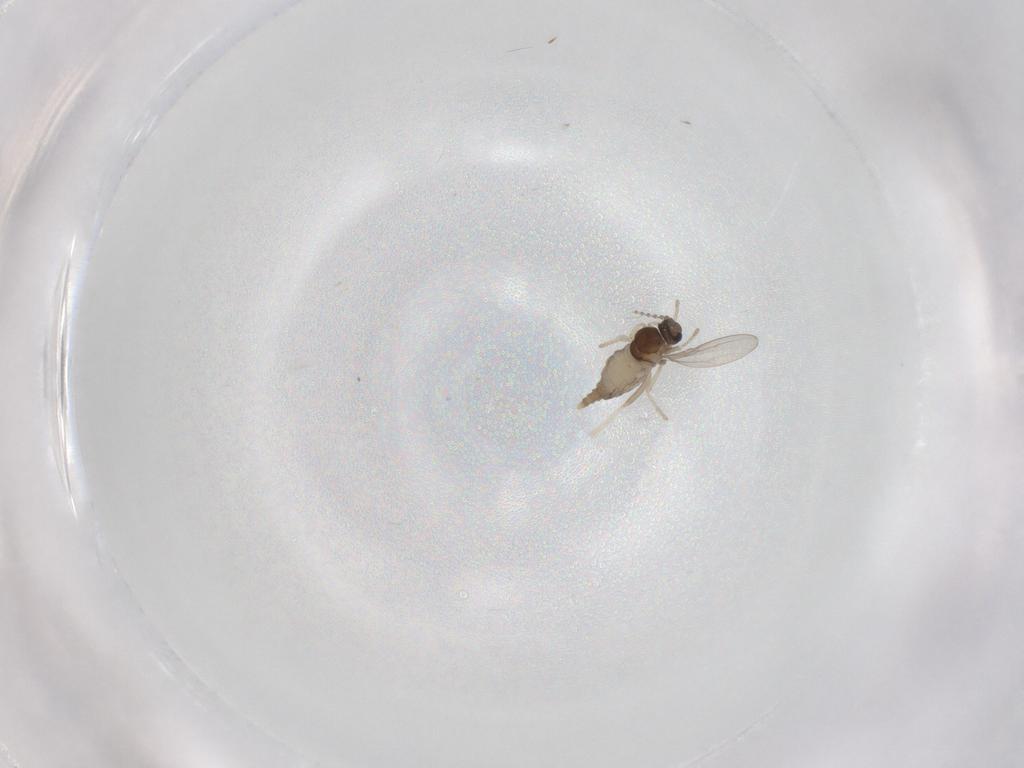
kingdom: Animalia
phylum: Arthropoda
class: Insecta
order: Diptera
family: Cecidomyiidae
